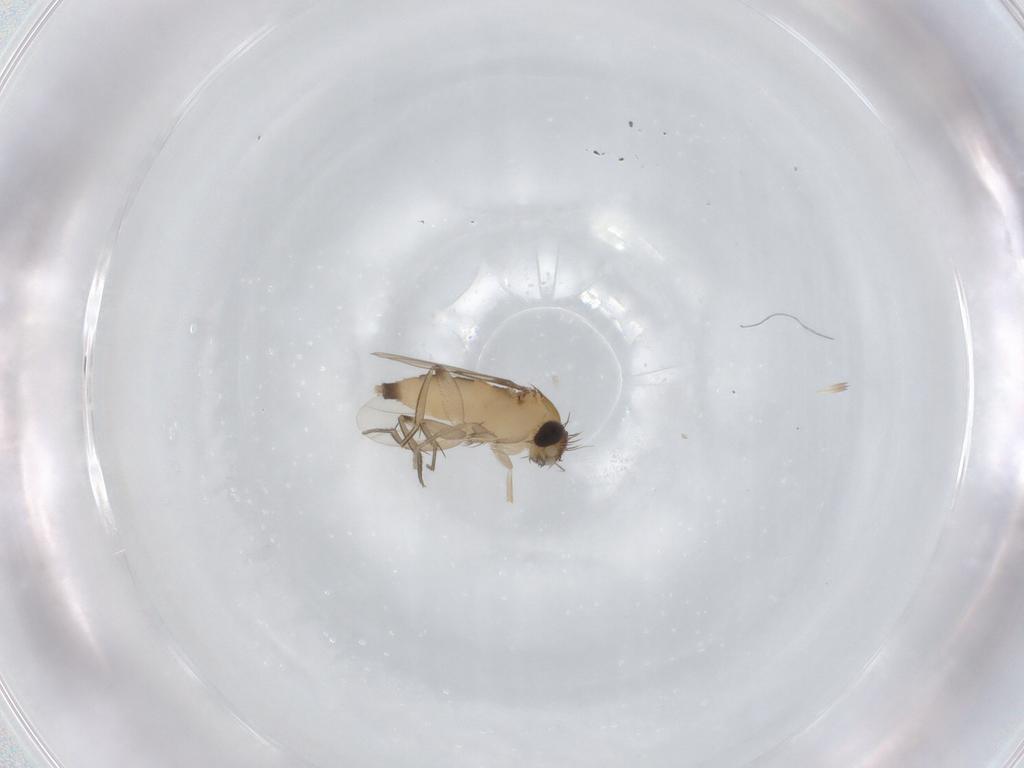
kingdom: Animalia
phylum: Arthropoda
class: Insecta
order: Diptera
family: Phoridae
